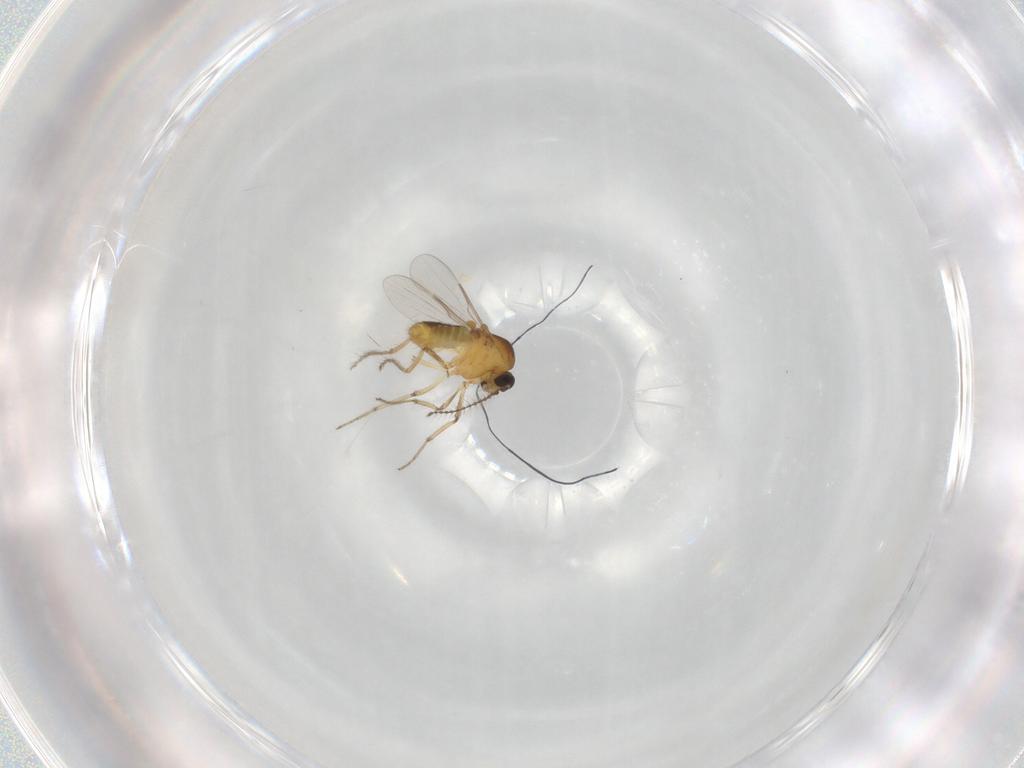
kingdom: Animalia
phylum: Arthropoda
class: Insecta
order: Diptera
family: Ceratopogonidae
